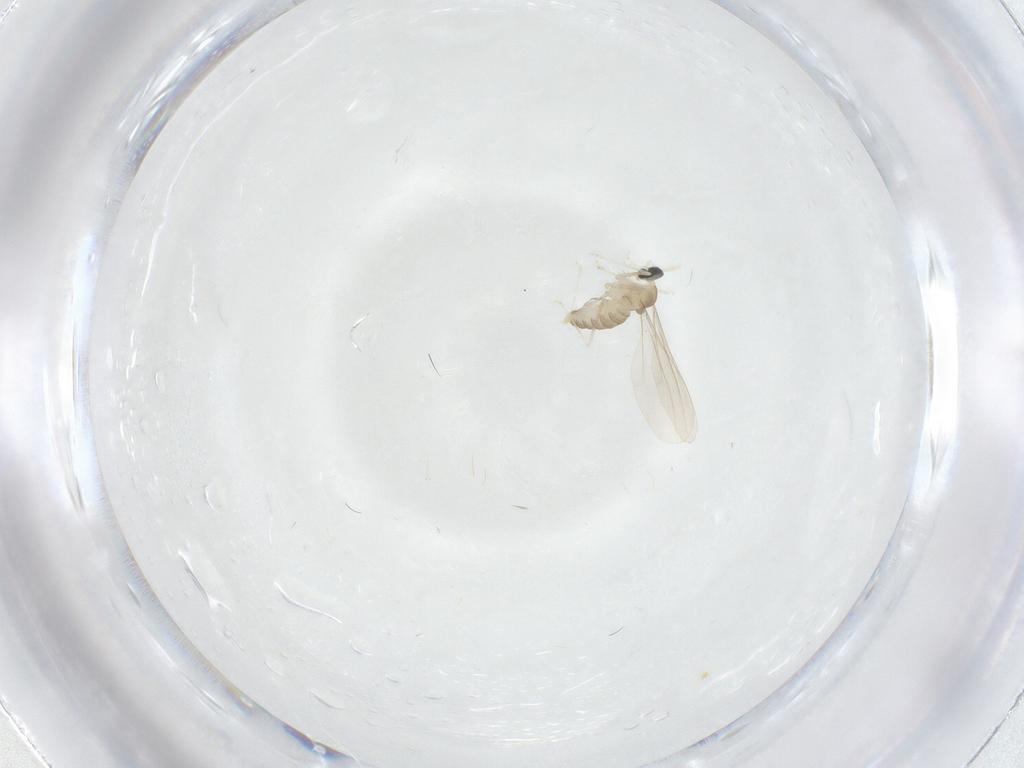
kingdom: Animalia
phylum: Arthropoda
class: Insecta
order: Diptera
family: Cecidomyiidae
